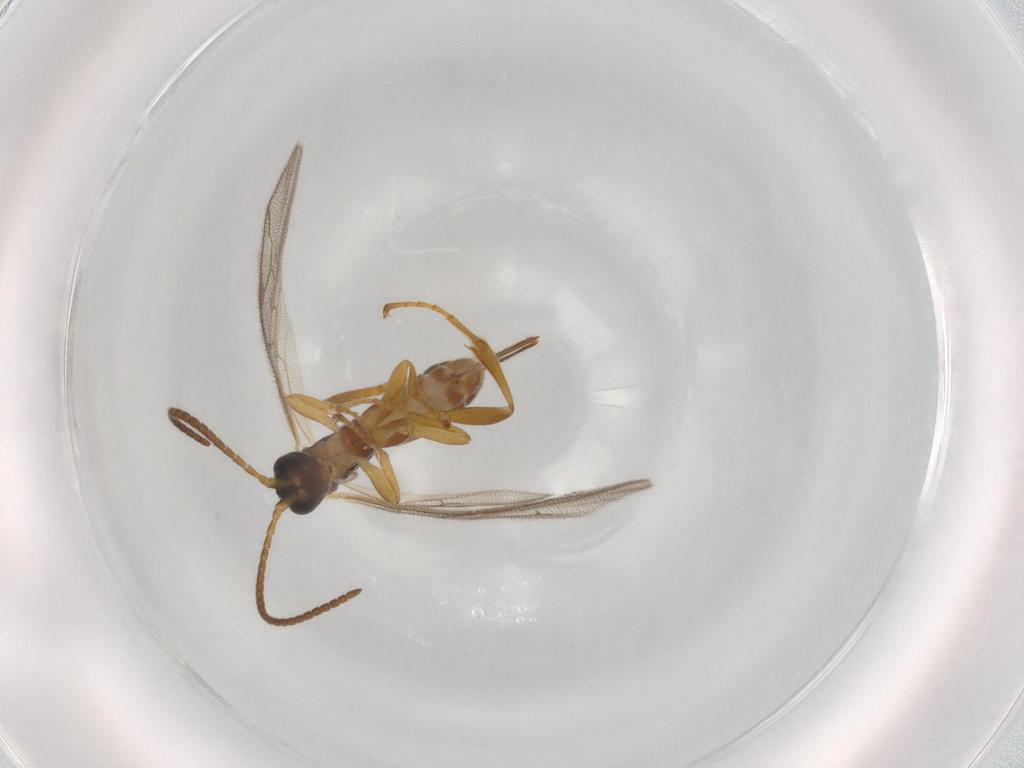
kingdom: Animalia
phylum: Arthropoda
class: Insecta
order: Hymenoptera
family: Ichneumonidae
